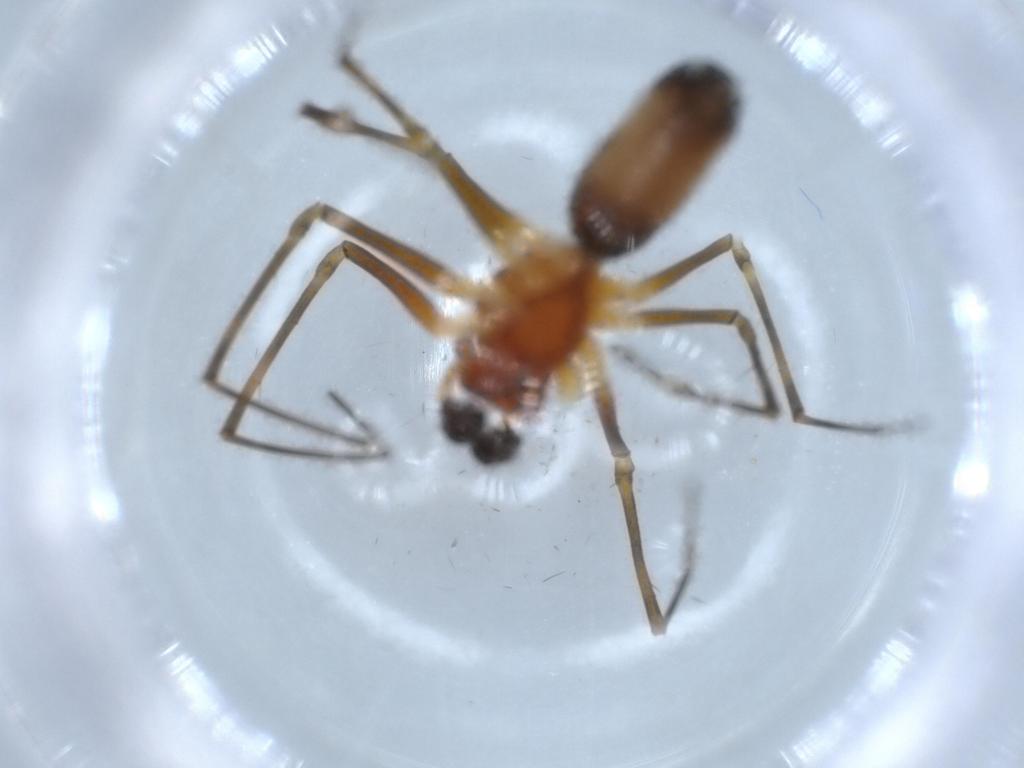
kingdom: Animalia
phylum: Arthropoda
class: Arachnida
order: Araneae
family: Linyphiidae
